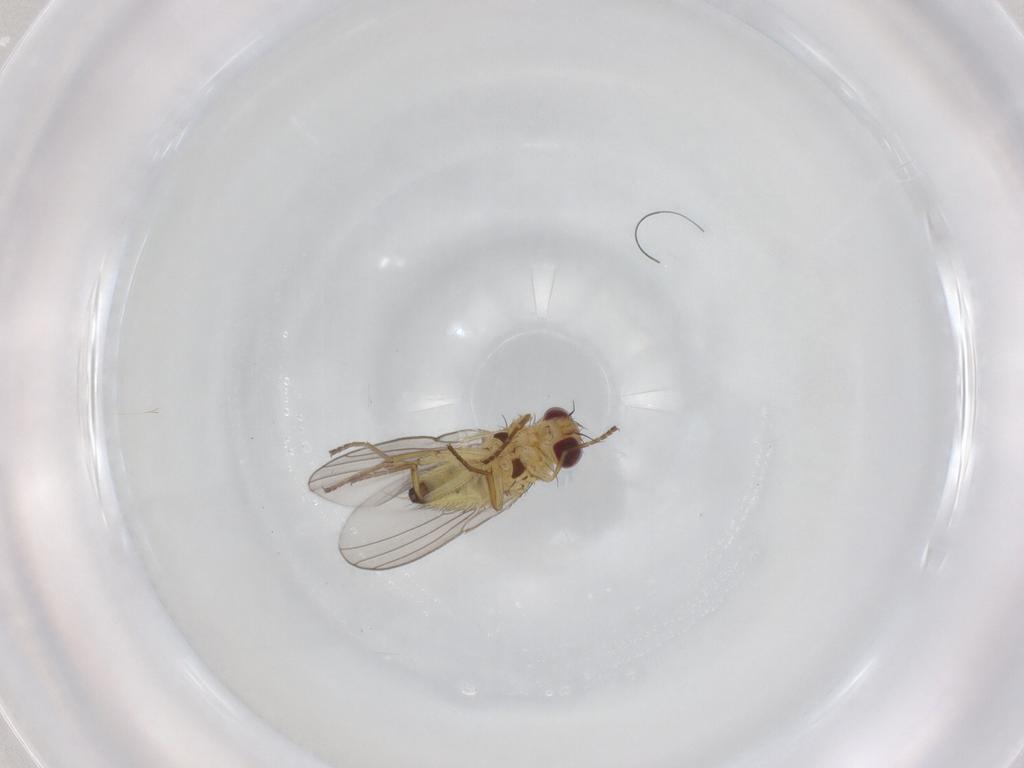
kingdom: Animalia
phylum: Arthropoda
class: Insecta
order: Diptera
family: Agromyzidae
